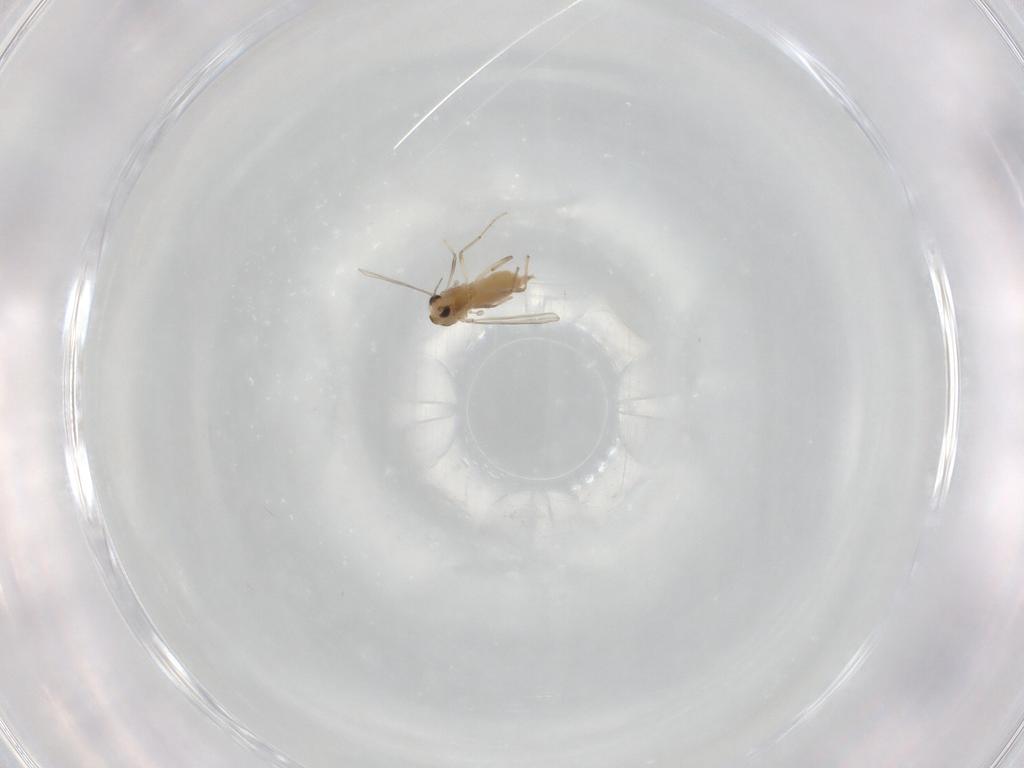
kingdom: Animalia
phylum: Arthropoda
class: Insecta
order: Diptera
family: Chironomidae
